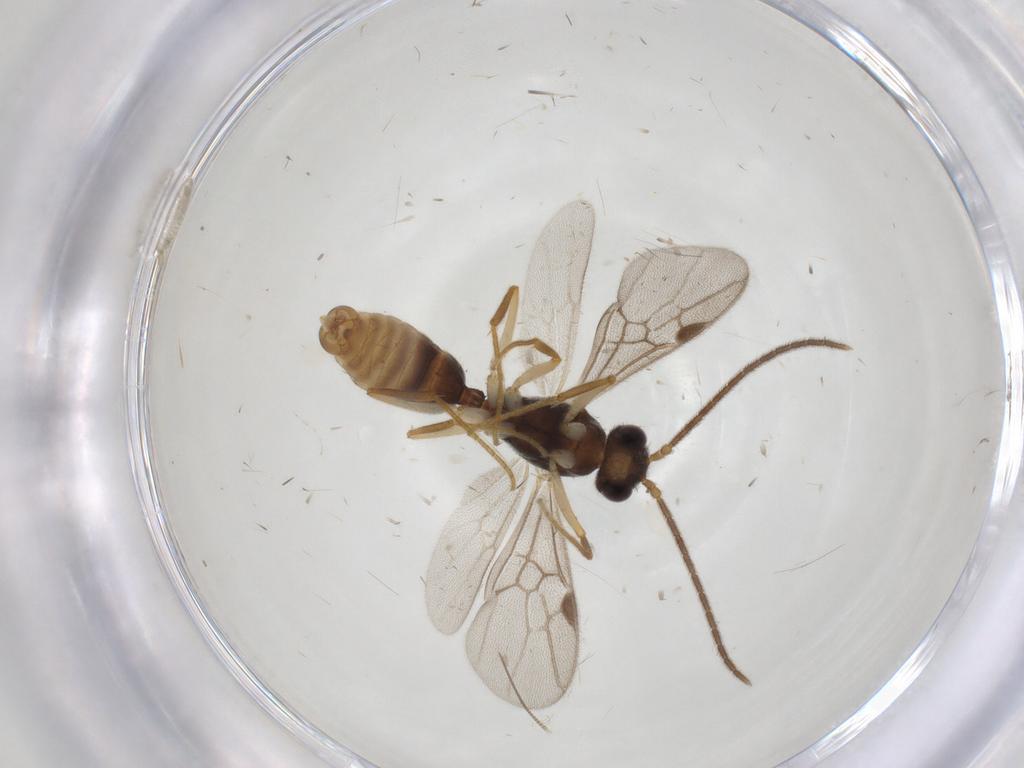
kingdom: Animalia
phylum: Arthropoda
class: Insecta
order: Hymenoptera
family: Formicidae
